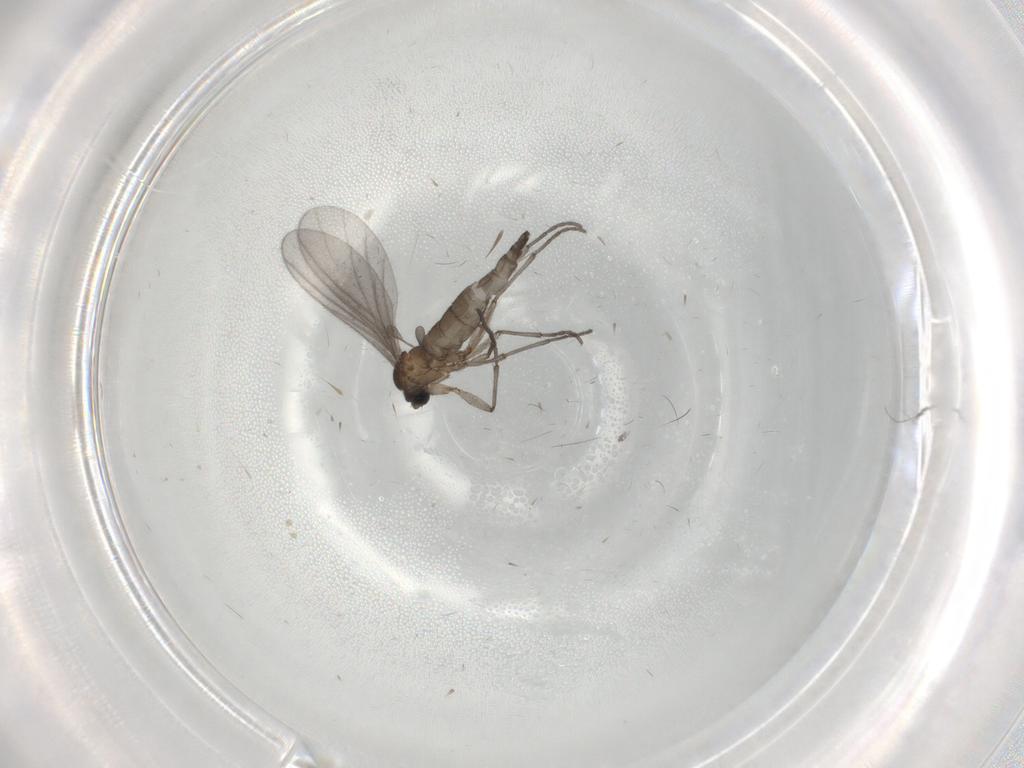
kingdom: Animalia
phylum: Arthropoda
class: Insecta
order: Diptera
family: Sciaridae
